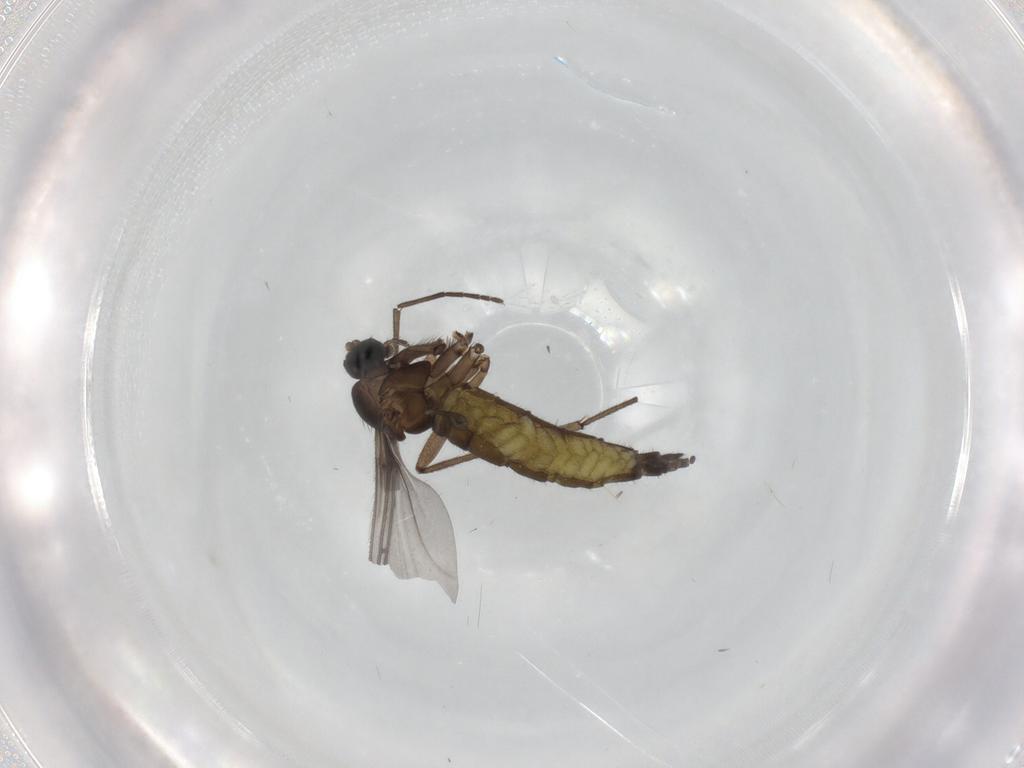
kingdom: Animalia
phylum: Arthropoda
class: Insecta
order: Diptera
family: Sciaridae
